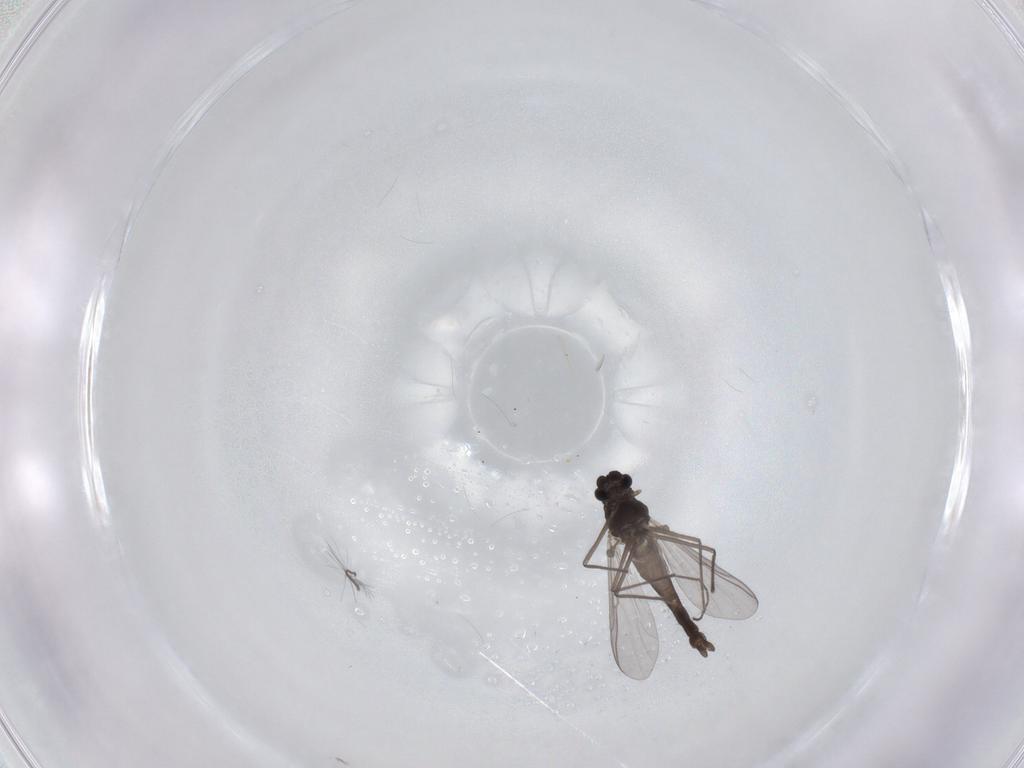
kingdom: Animalia
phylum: Arthropoda
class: Insecta
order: Diptera
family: Chironomidae
